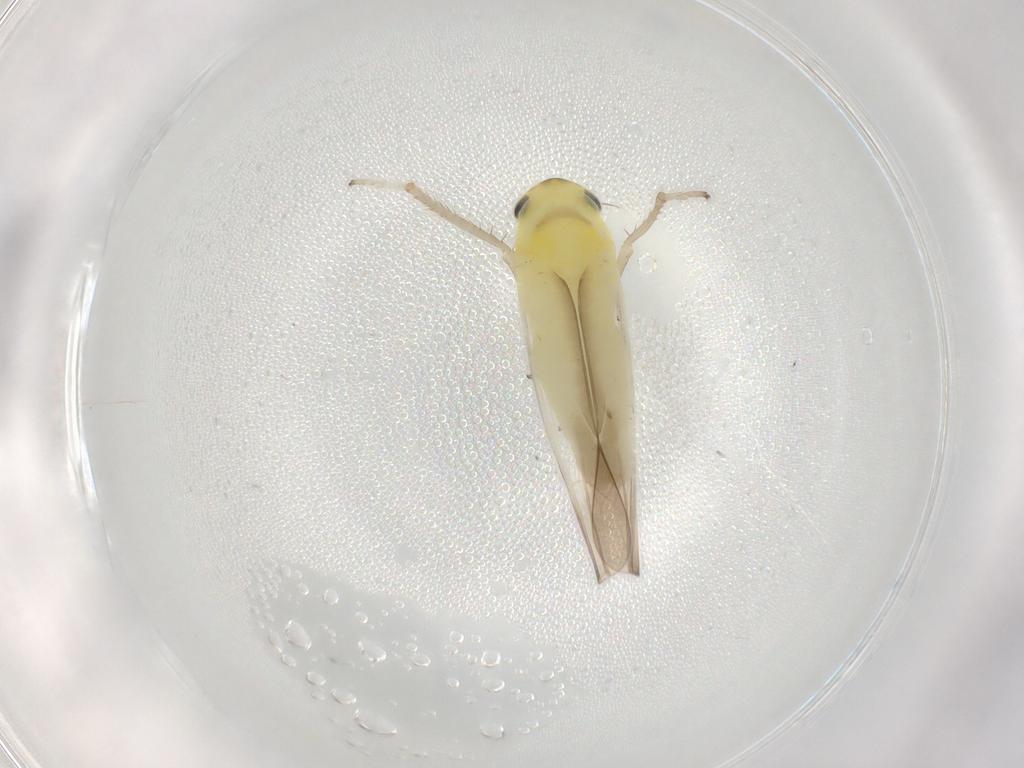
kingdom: Animalia
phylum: Arthropoda
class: Insecta
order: Hemiptera
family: Cicadellidae
